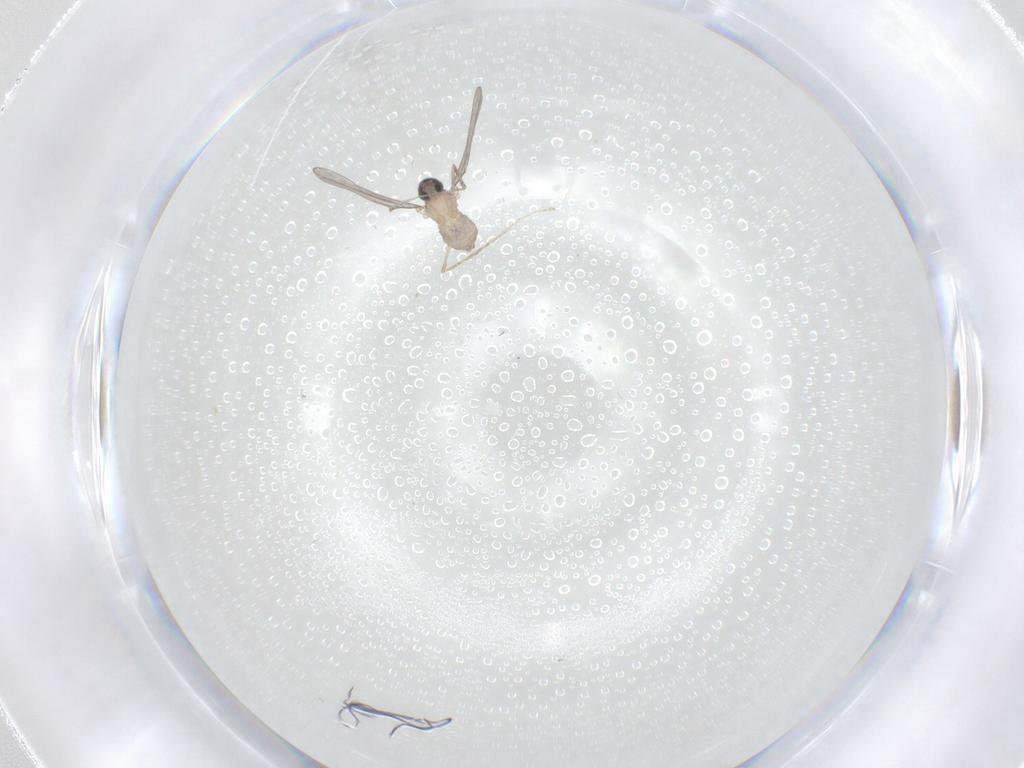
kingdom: Animalia
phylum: Arthropoda
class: Insecta
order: Diptera
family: Cecidomyiidae
